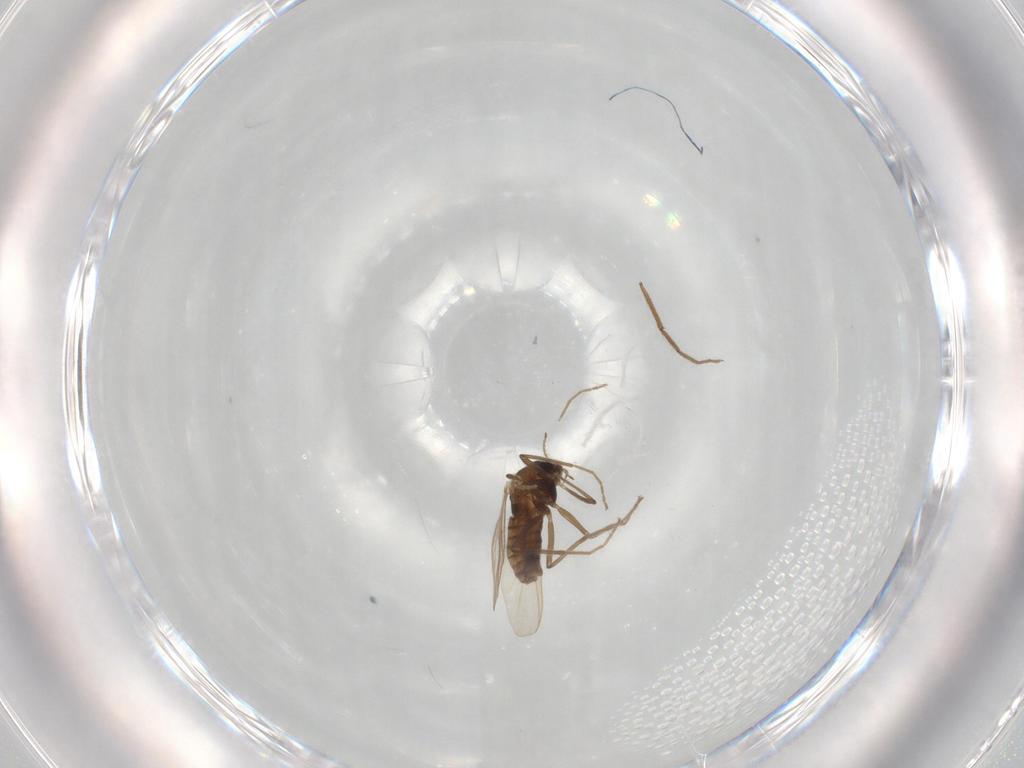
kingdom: Animalia
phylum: Arthropoda
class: Insecta
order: Diptera
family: Chironomidae
